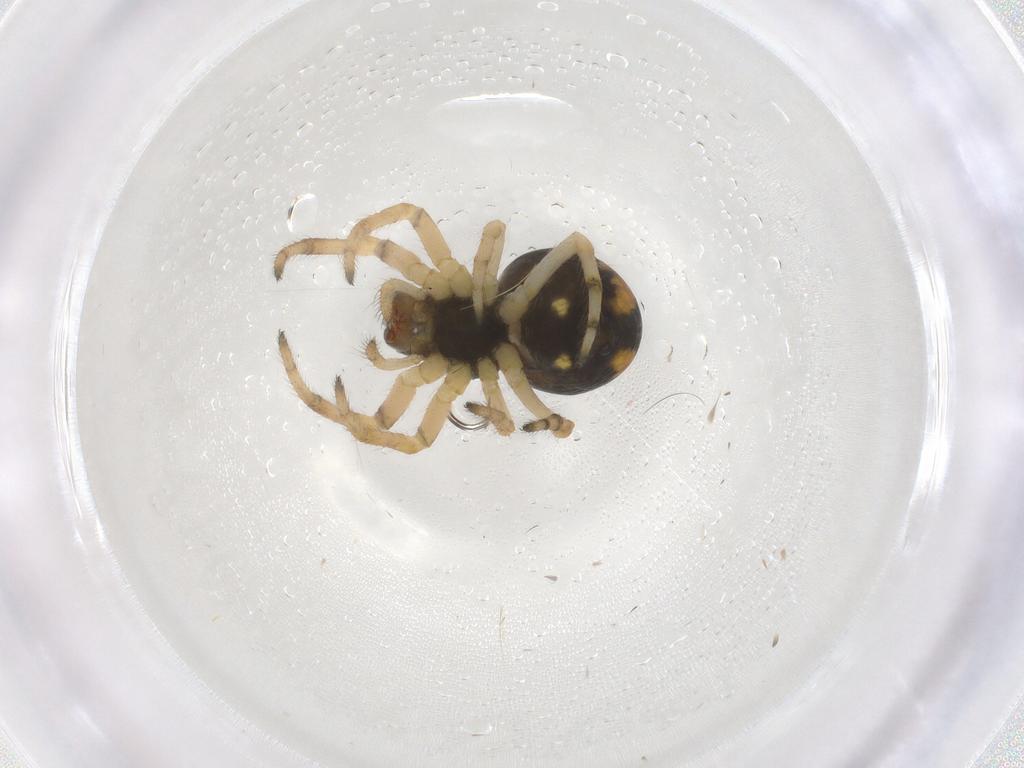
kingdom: Animalia
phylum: Arthropoda
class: Arachnida
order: Araneae
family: Araneidae
